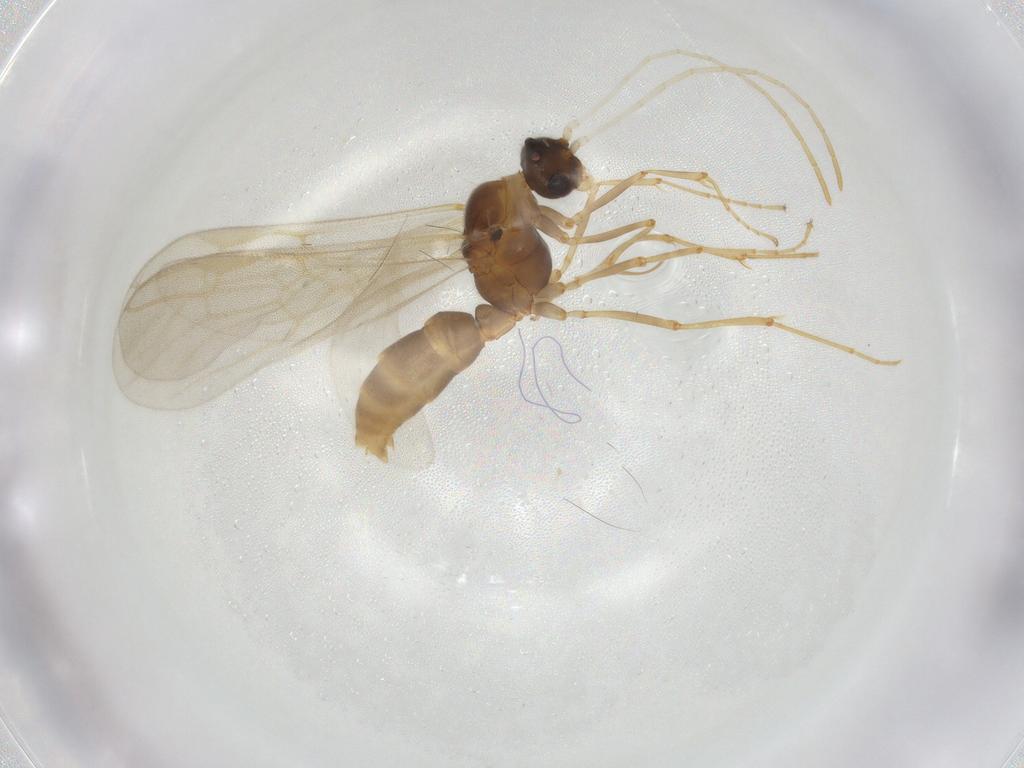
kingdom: Animalia
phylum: Arthropoda
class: Insecta
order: Hymenoptera
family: Formicidae
